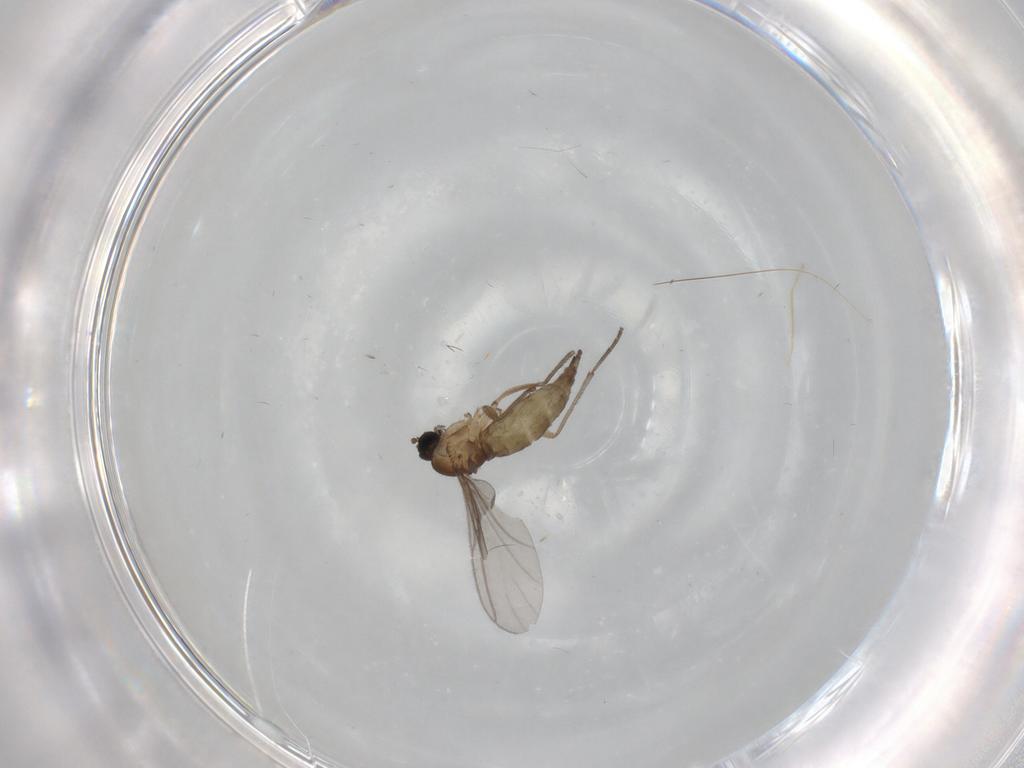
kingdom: Animalia
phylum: Arthropoda
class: Insecta
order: Diptera
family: Sciaridae
